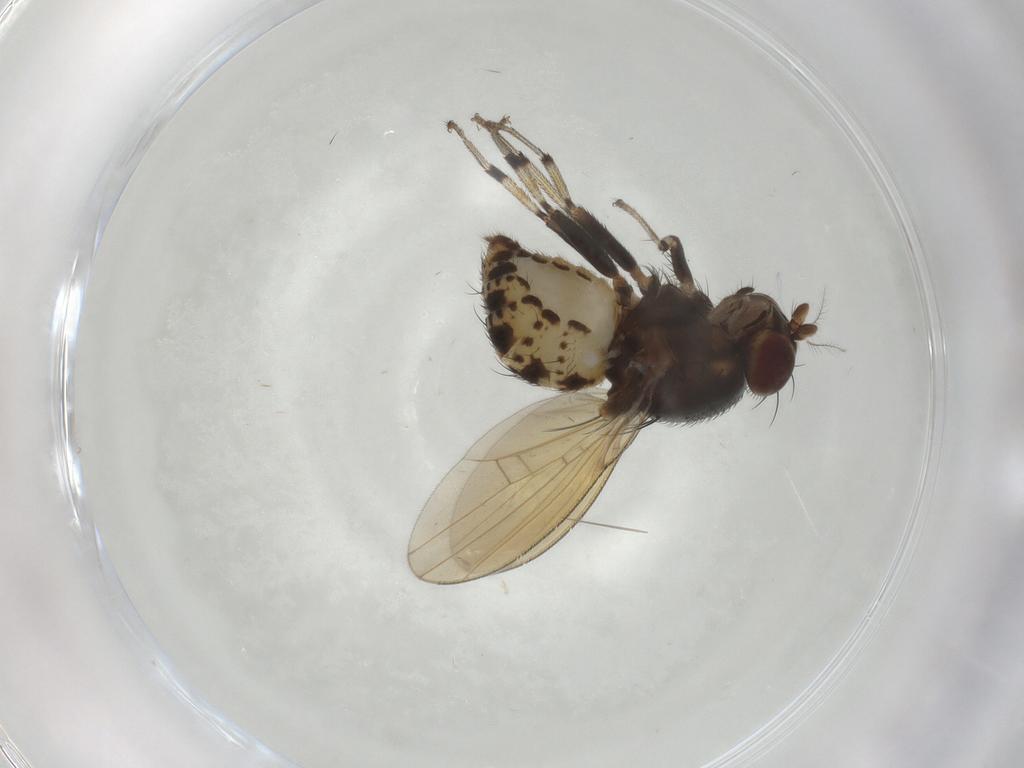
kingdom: Animalia
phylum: Arthropoda
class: Insecta
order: Diptera
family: Lauxaniidae
